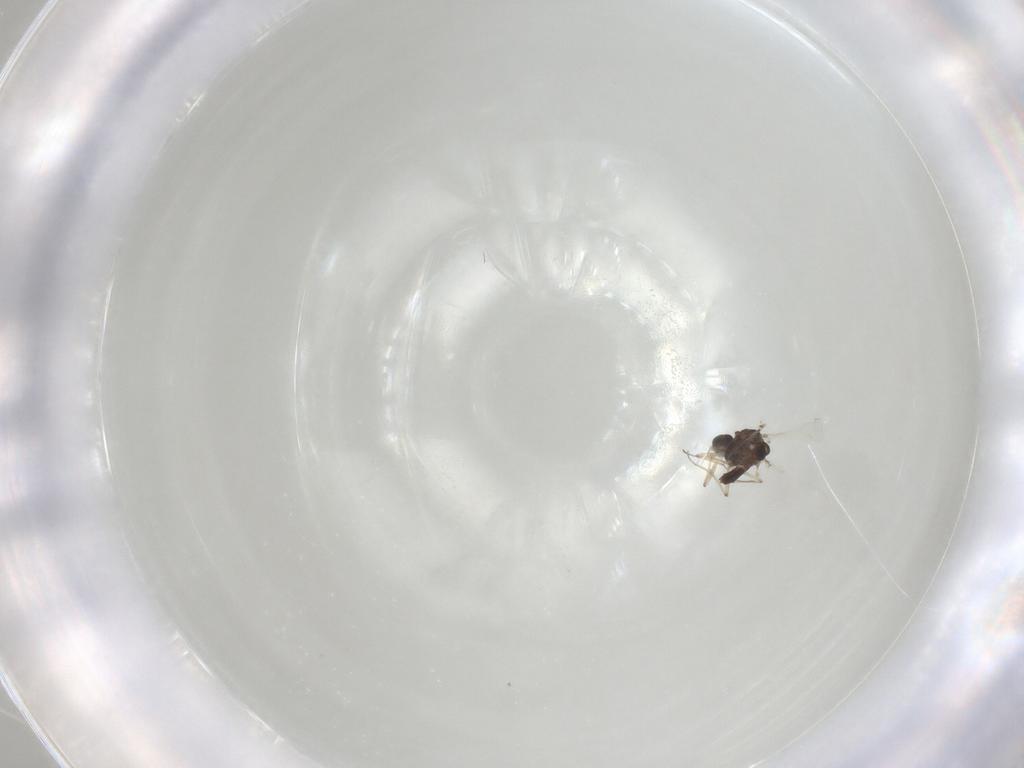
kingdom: Animalia
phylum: Arthropoda
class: Insecta
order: Diptera
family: Chironomidae
